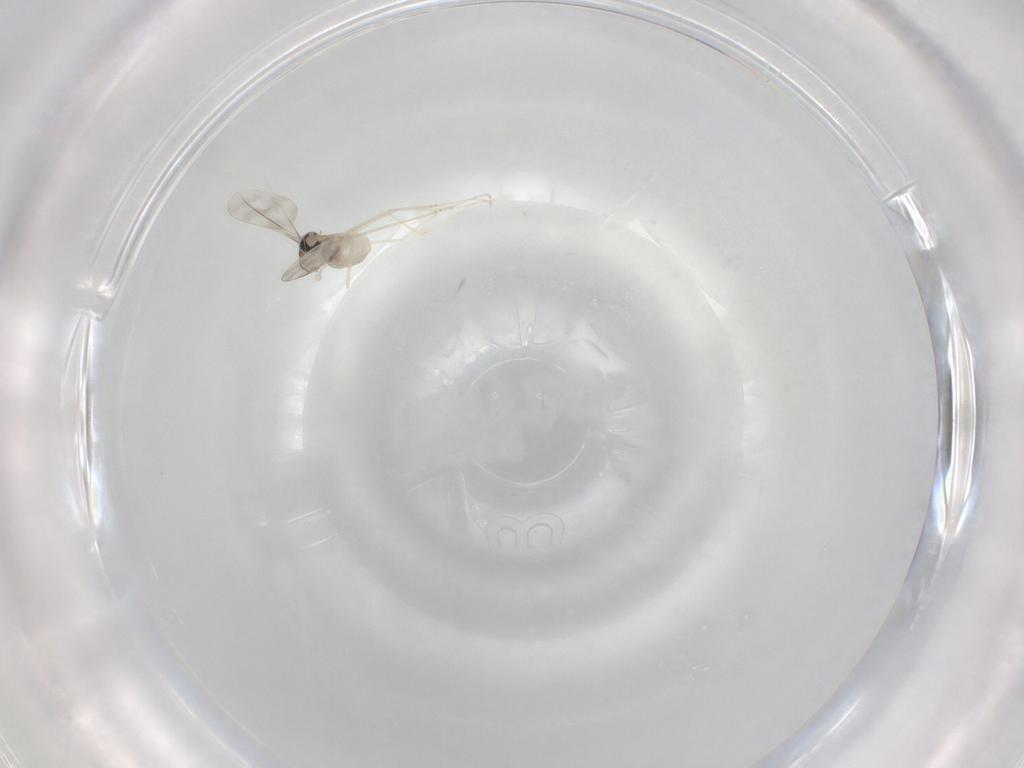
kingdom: Animalia
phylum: Arthropoda
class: Insecta
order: Diptera
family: Cecidomyiidae
